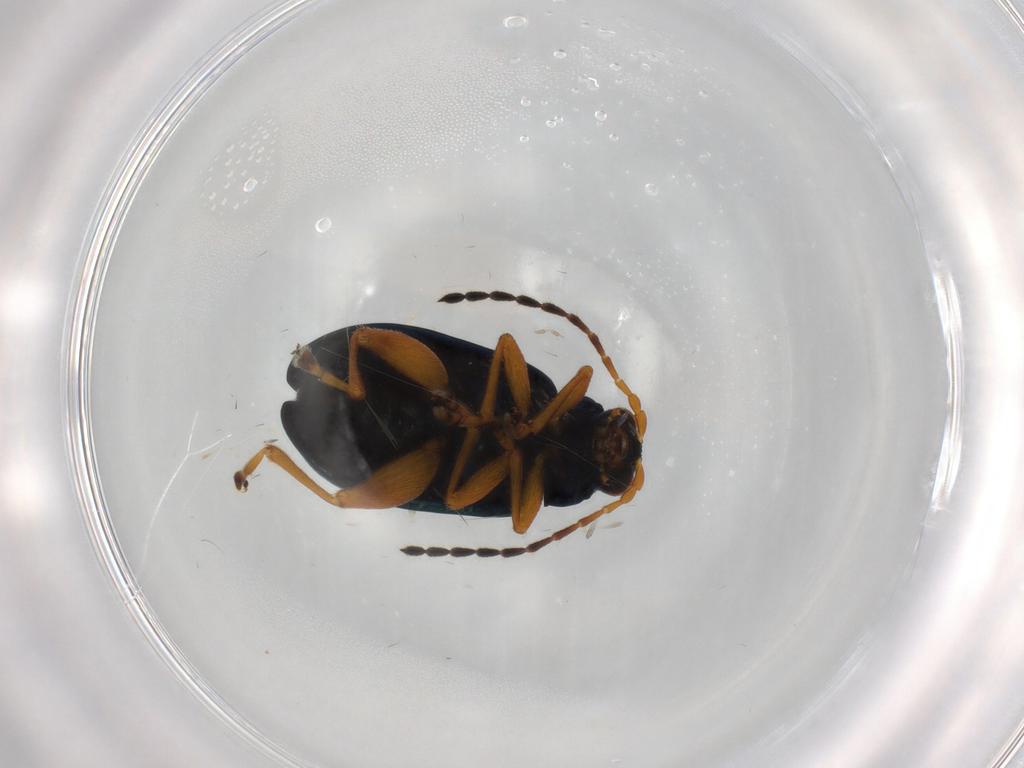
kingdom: Animalia
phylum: Arthropoda
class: Insecta
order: Coleoptera
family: Chrysomelidae
